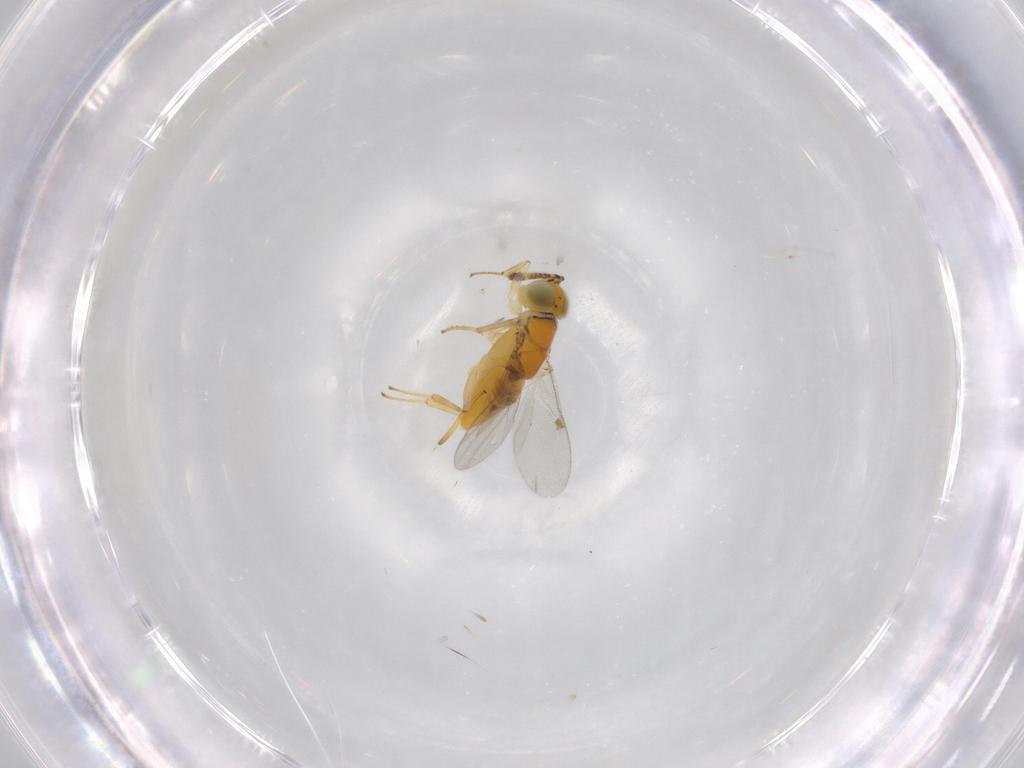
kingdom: Animalia
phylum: Arthropoda
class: Insecta
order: Hymenoptera
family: Encyrtidae
